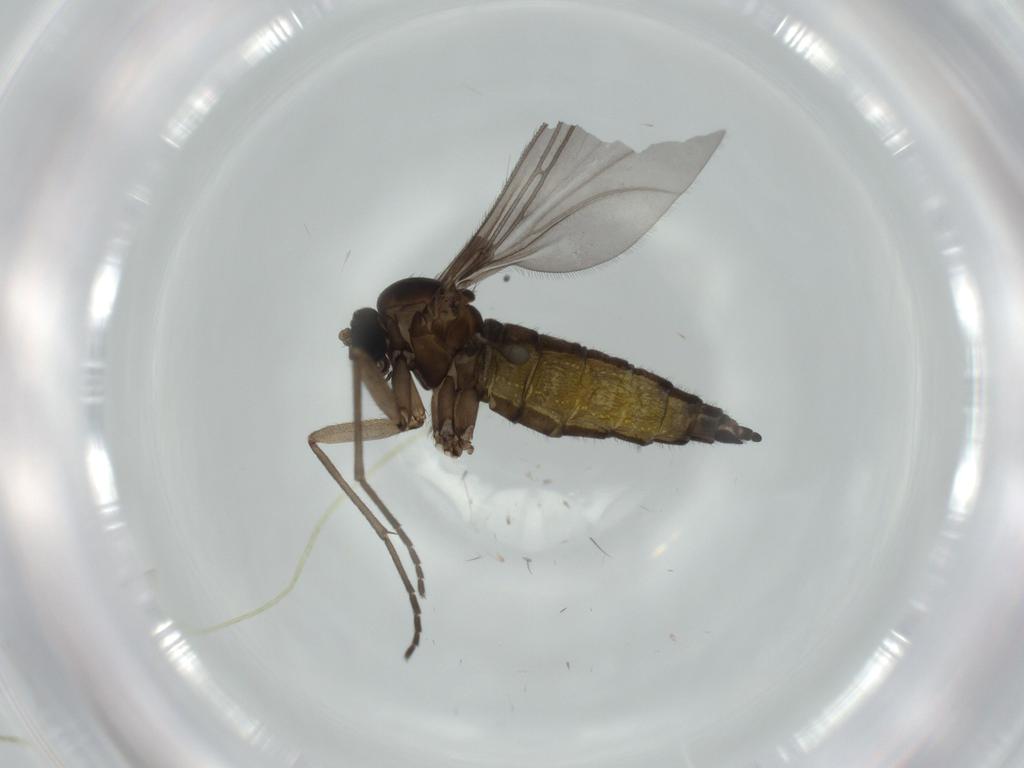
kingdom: Animalia
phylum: Arthropoda
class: Insecta
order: Diptera
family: Sciaridae
